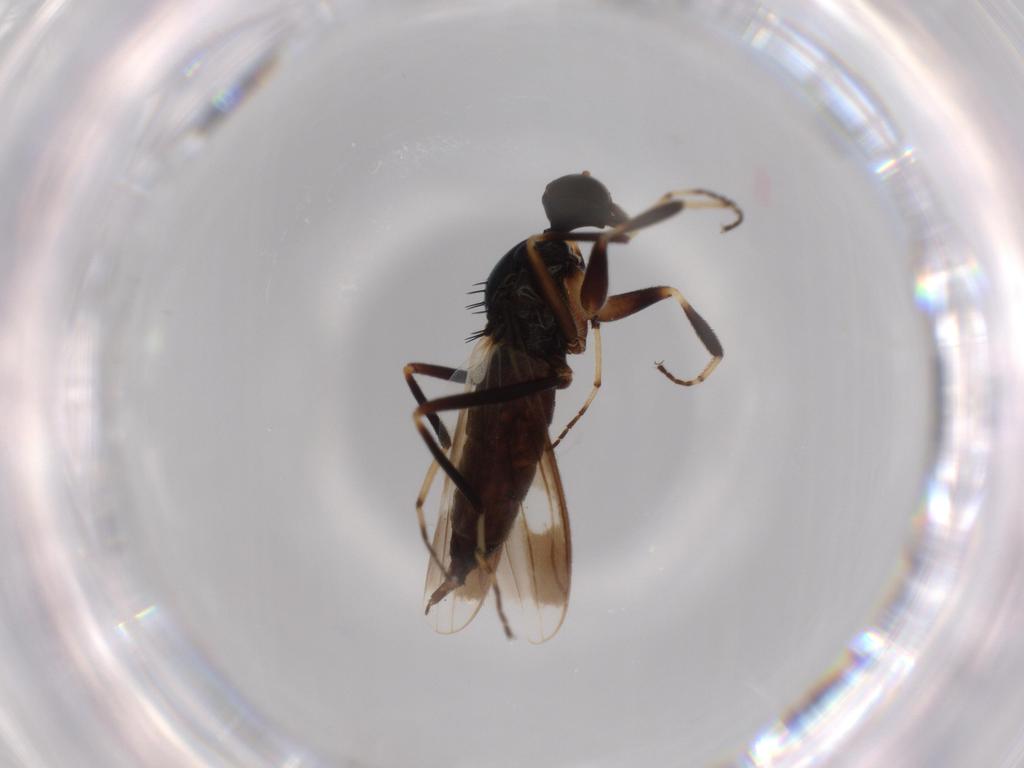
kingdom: Animalia
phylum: Arthropoda
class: Insecta
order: Diptera
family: Hybotidae
